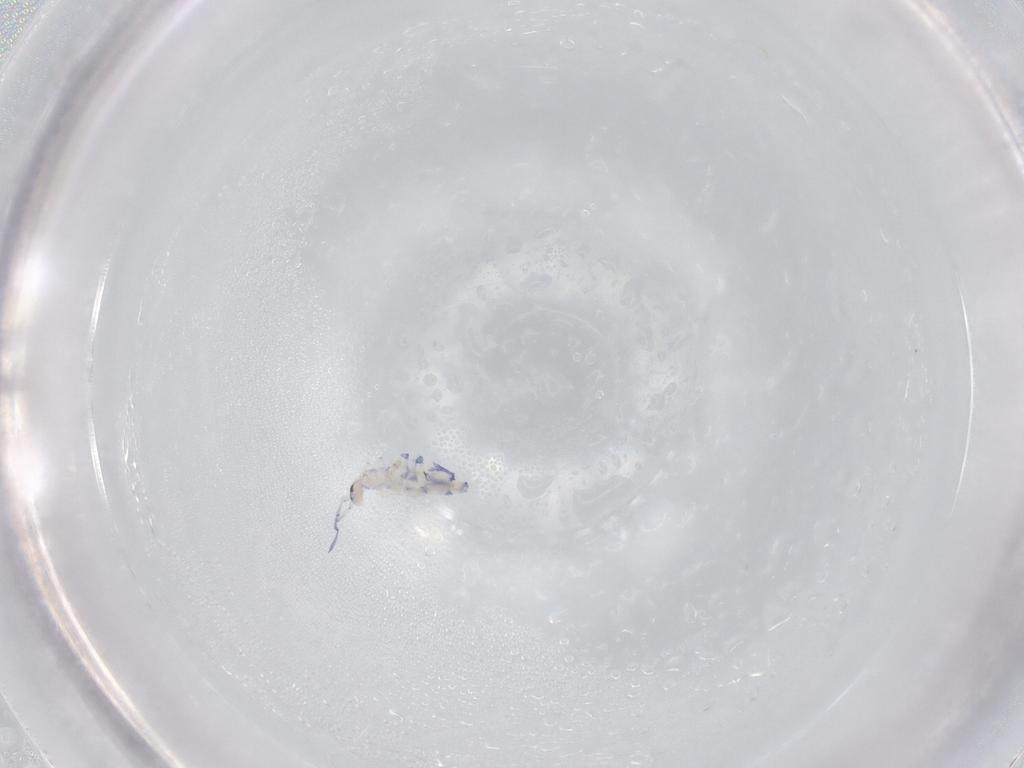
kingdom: Animalia
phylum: Arthropoda
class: Collembola
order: Entomobryomorpha
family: Entomobryidae
